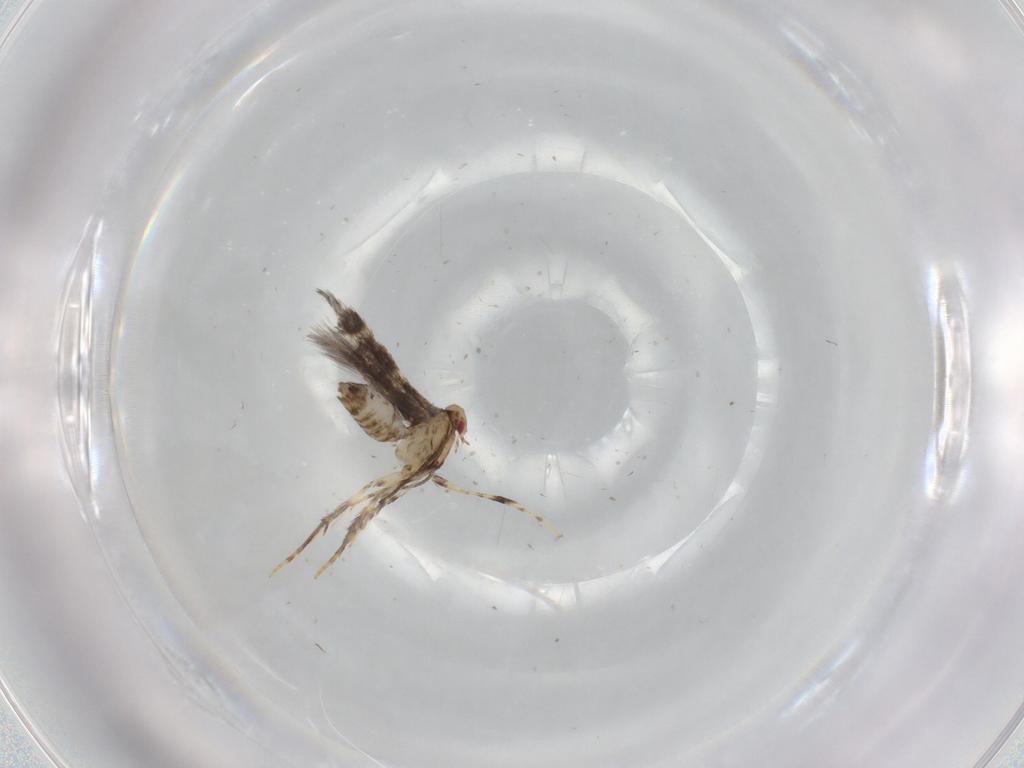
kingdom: Animalia
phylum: Arthropoda
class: Insecta
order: Lepidoptera
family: Gracillariidae
